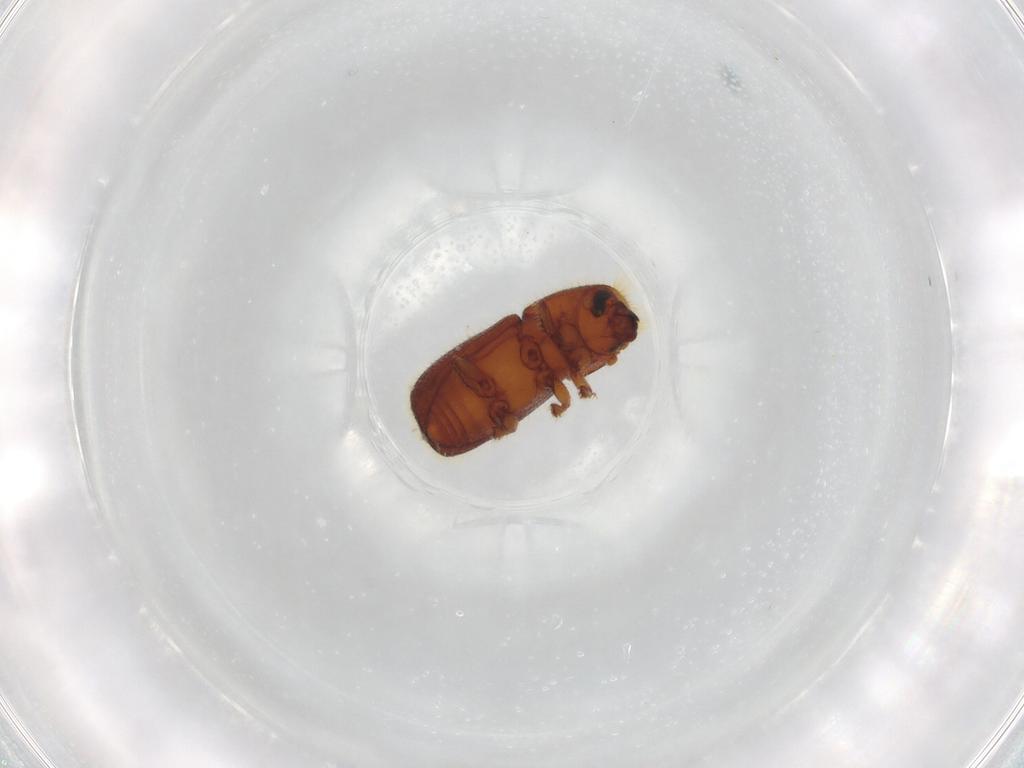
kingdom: Animalia
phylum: Arthropoda
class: Insecta
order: Coleoptera
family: Curculionidae
